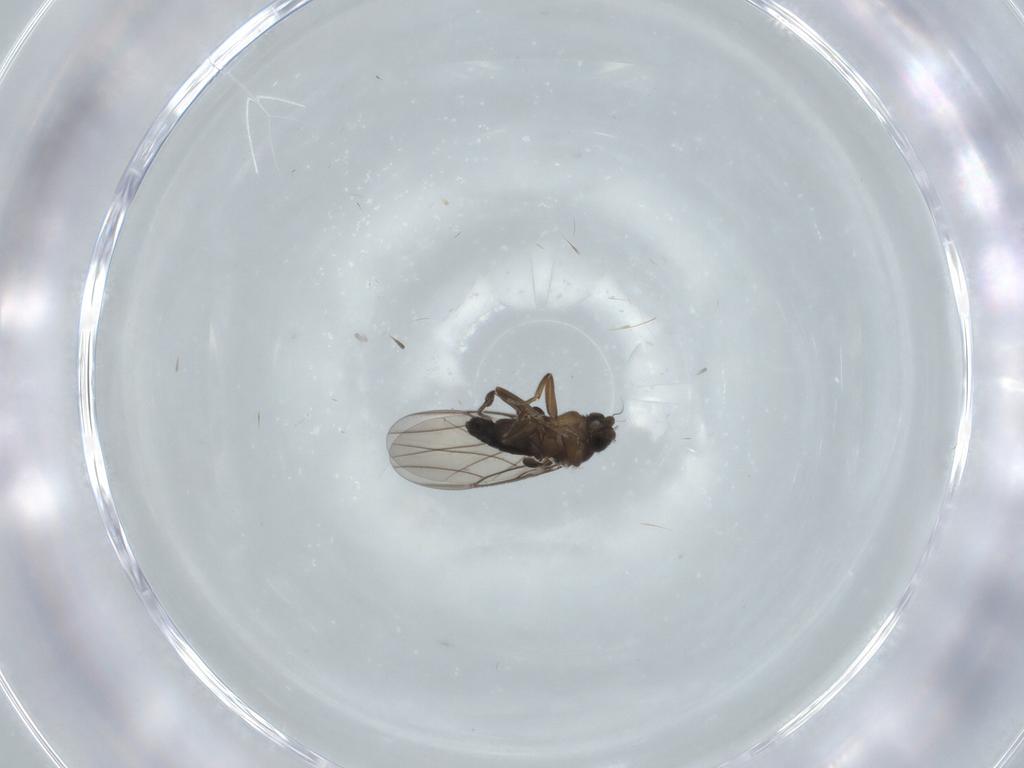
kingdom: Animalia
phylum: Arthropoda
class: Insecta
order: Diptera
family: Phoridae
